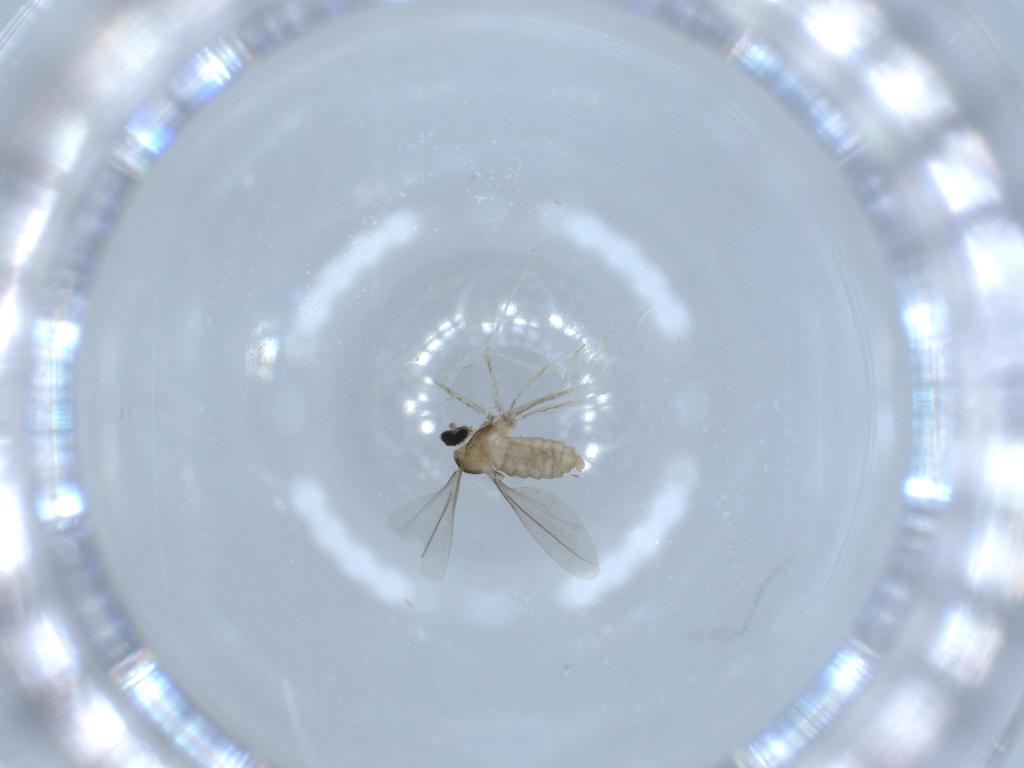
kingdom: Animalia
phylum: Arthropoda
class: Insecta
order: Diptera
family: Cecidomyiidae
